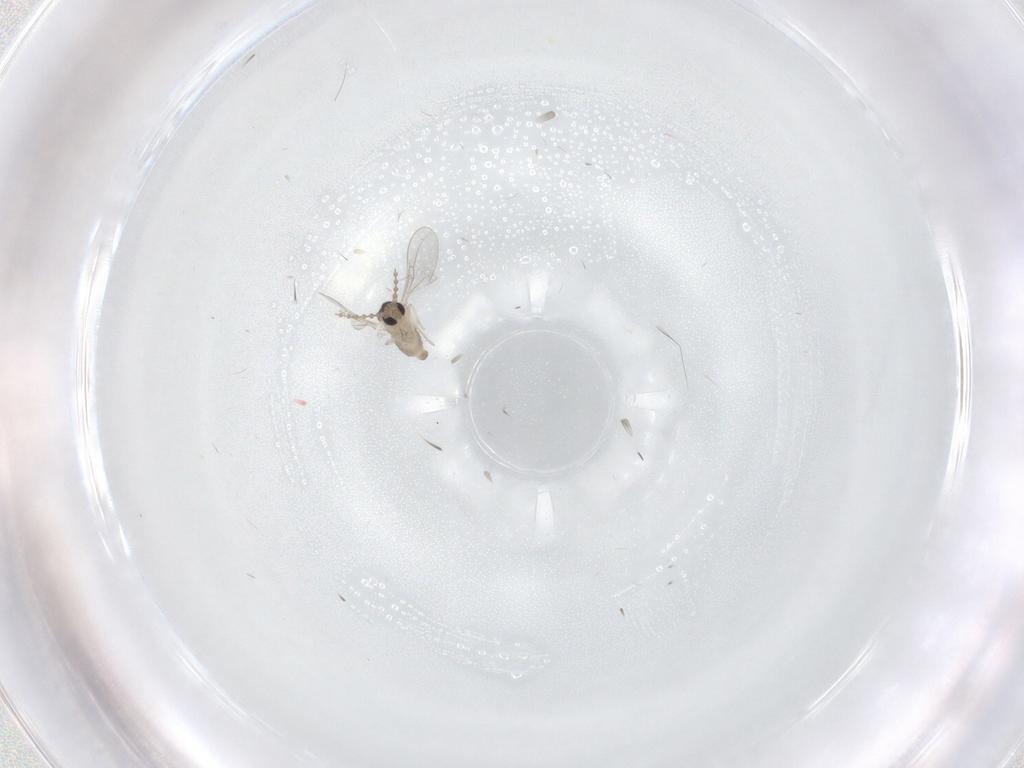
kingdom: Animalia
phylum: Arthropoda
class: Insecta
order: Diptera
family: Cecidomyiidae
